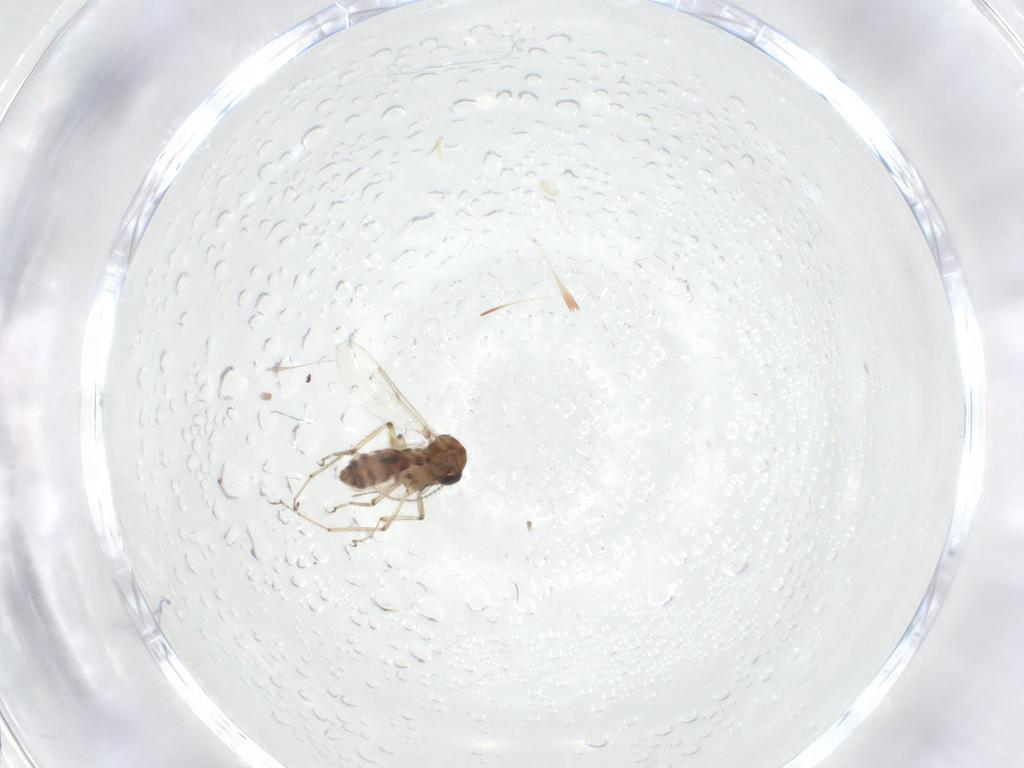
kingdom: Animalia
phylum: Arthropoda
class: Insecta
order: Diptera
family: Ceratopogonidae
